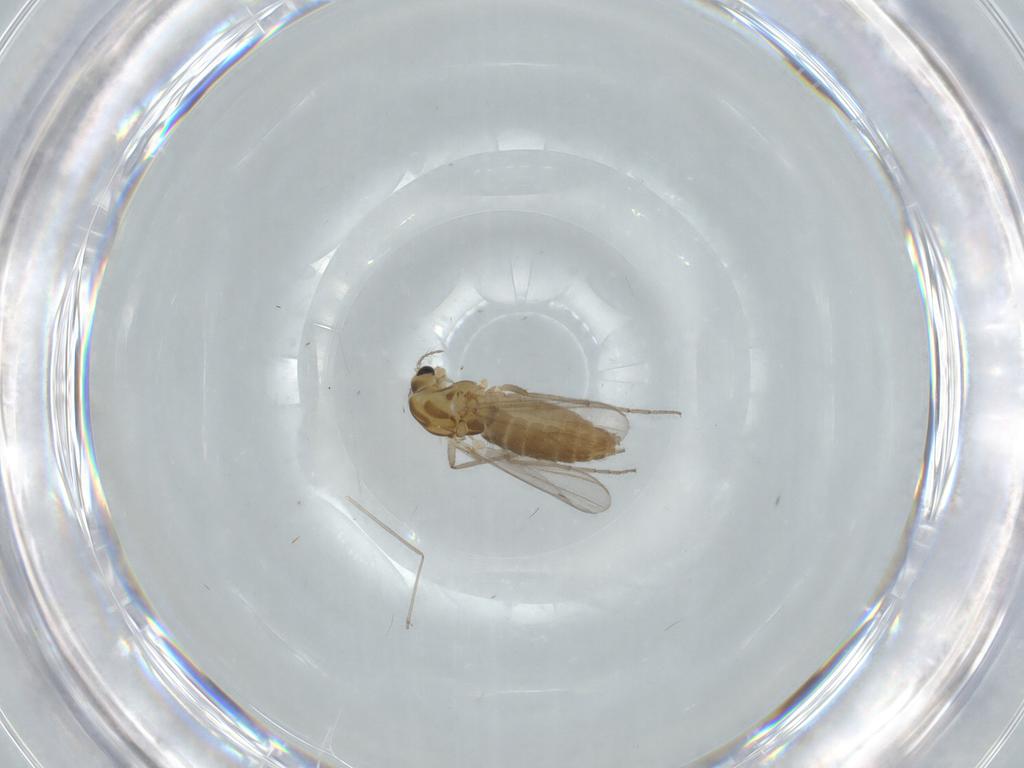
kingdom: Animalia
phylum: Arthropoda
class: Insecta
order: Diptera
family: Chironomidae
